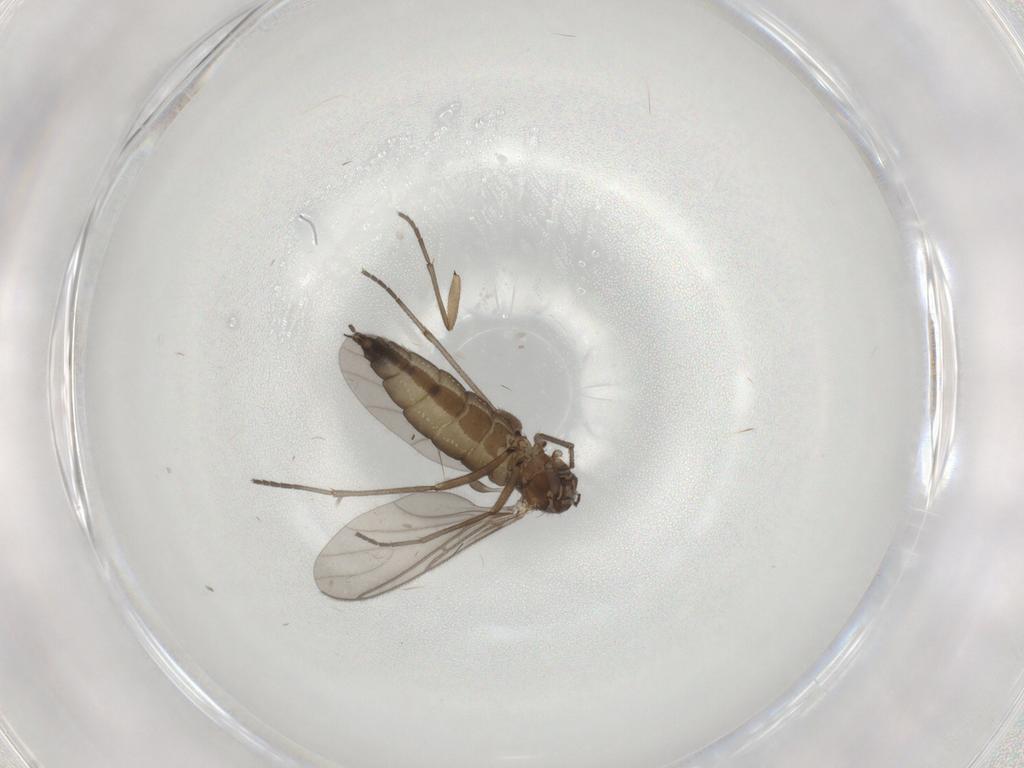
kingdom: Animalia
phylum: Arthropoda
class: Insecta
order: Diptera
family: Sciaridae
